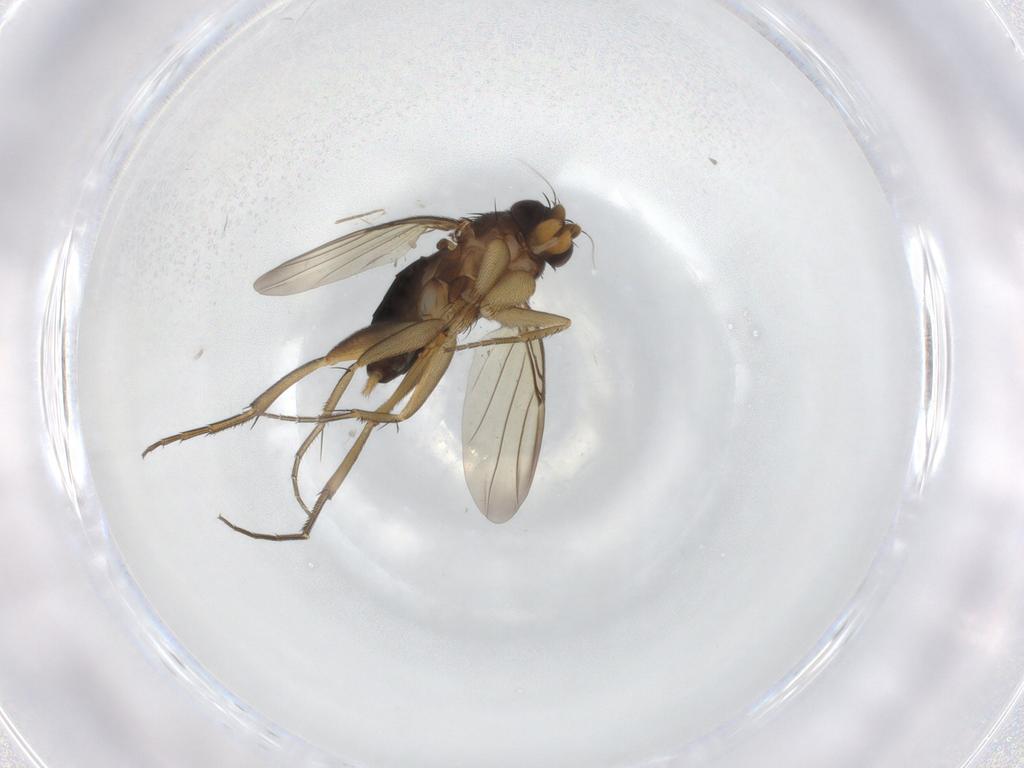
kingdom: Animalia
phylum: Arthropoda
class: Insecta
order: Diptera
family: Phoridae
